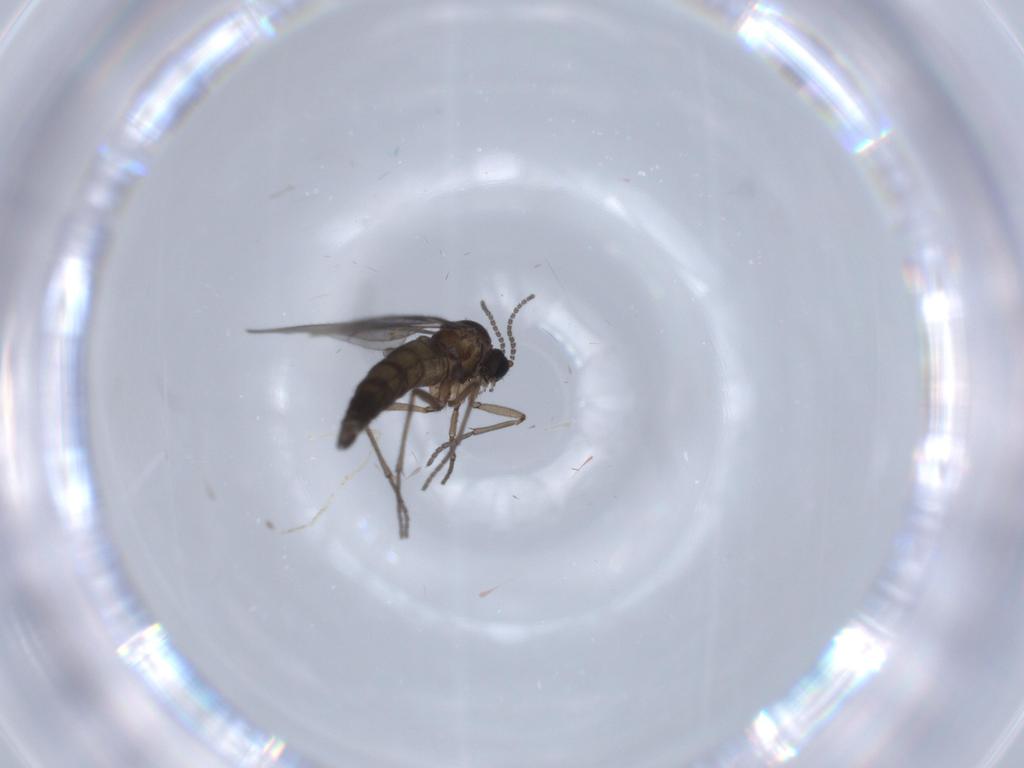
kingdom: Animalia
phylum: Arthropoda
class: Insecta
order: Diptera
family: Sciaridae
